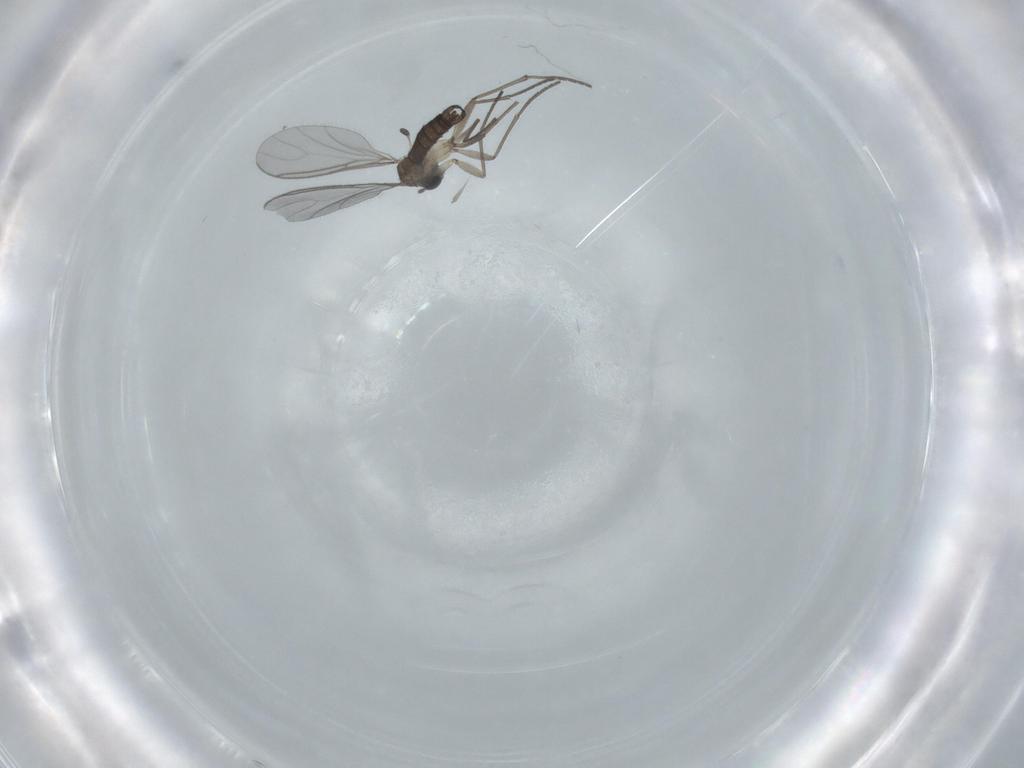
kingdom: Animalia
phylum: Arthropoda
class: Insecta
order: Diptera
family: Sciaridae
